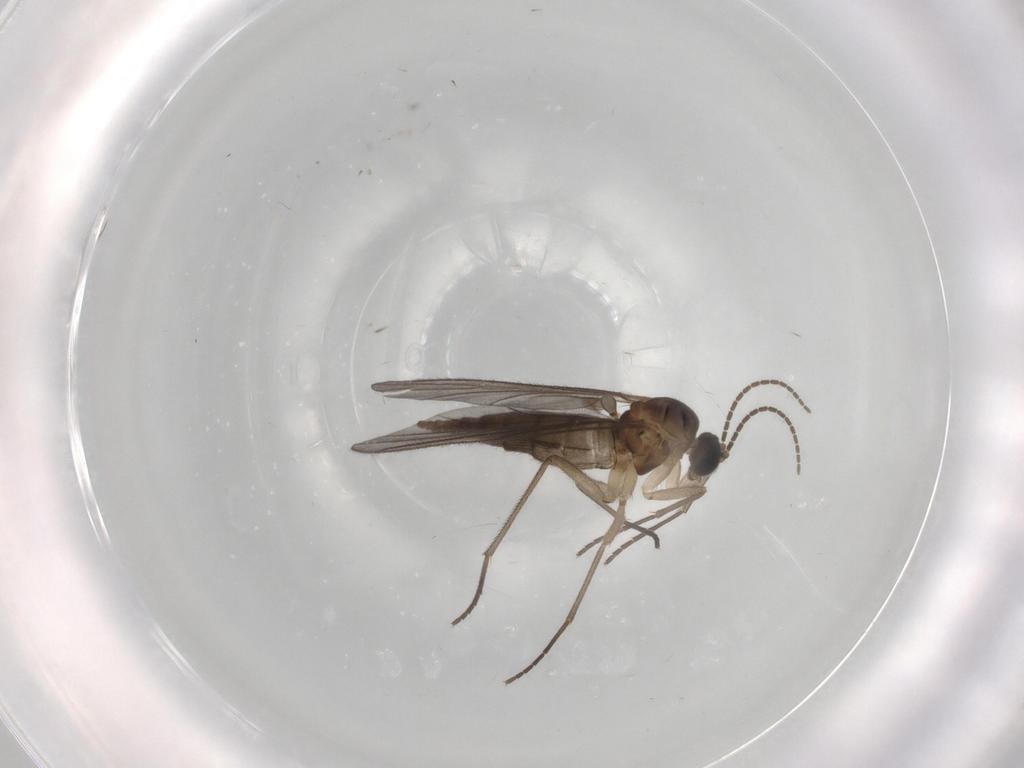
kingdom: Animalia
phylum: Arthropoda
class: Insecta
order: Diptera
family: Sciaridae
